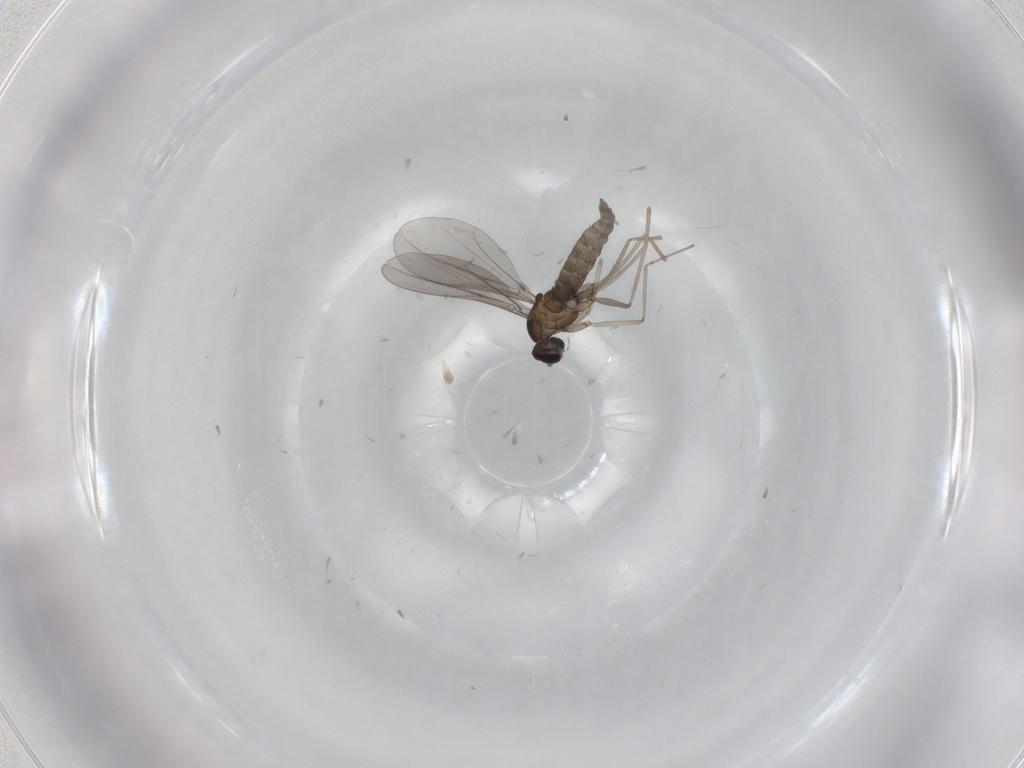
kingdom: Animalia
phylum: Arthropoda
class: Insecta
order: Diptera
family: Cecidomyiidae
